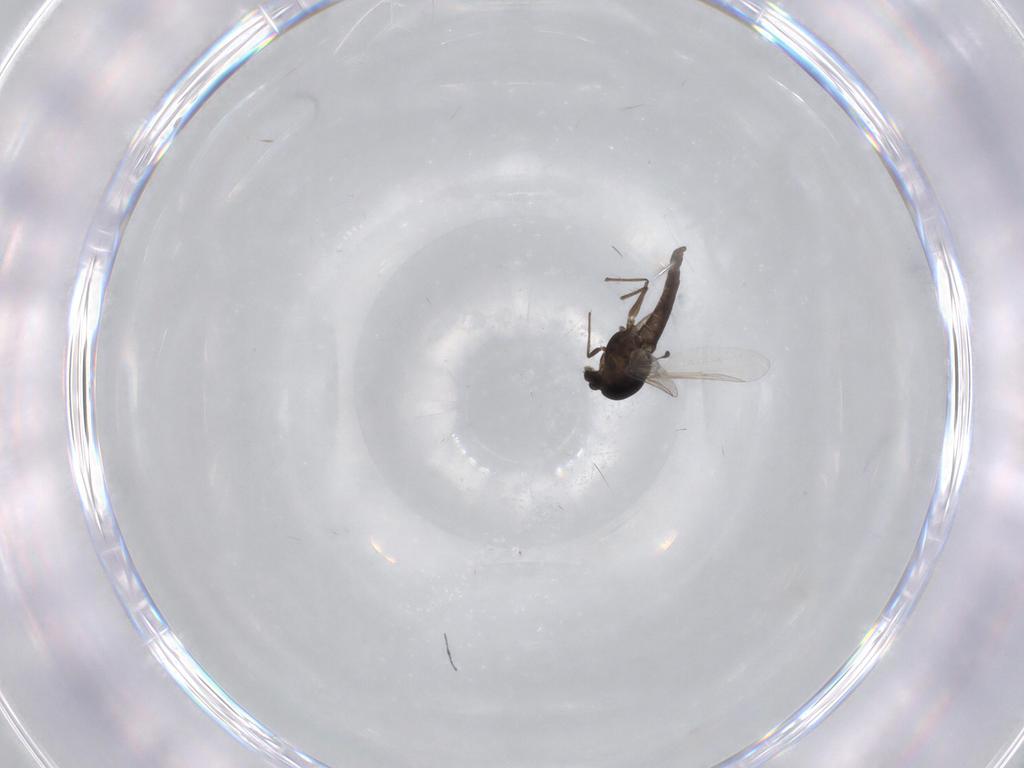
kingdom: Animalia
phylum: Arthropoda
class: Insecta
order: Diptera
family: Chironomidae
